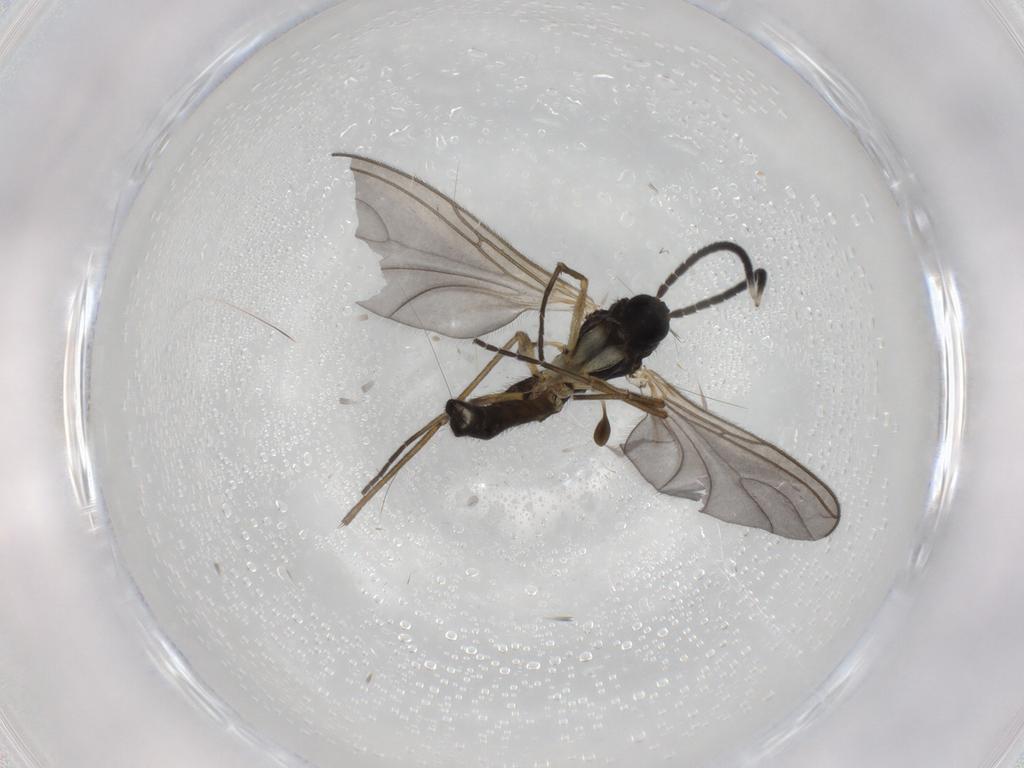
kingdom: Animalia
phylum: Arthropoda
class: Insecta
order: Diptera
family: Sciaridae
